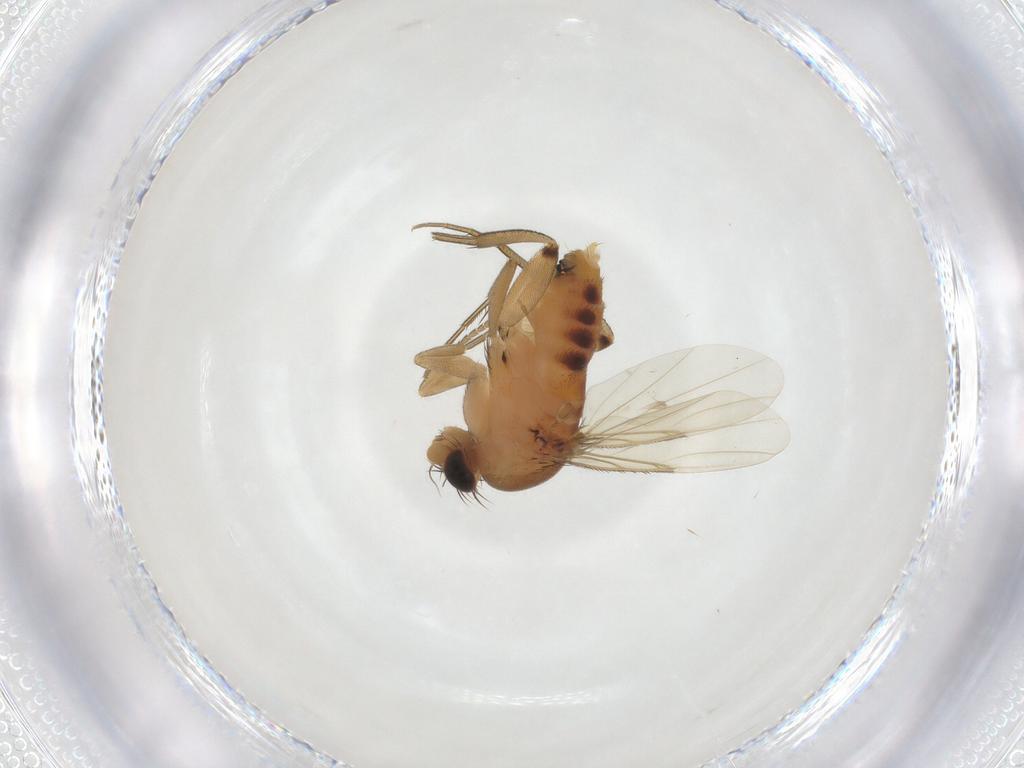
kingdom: Animalia
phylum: Arthropoda
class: Insecta
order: Diptera
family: Phoridae
